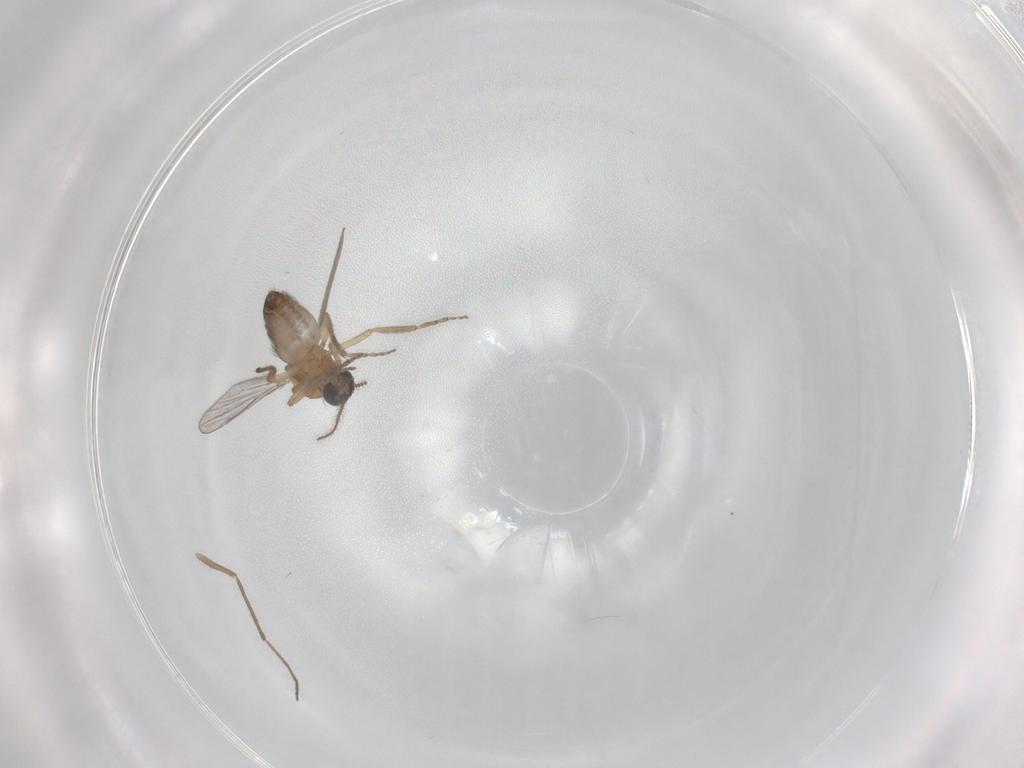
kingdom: Animalia
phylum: Arthropoda
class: Insecta
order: Diptera
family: Ceratopogonidae
